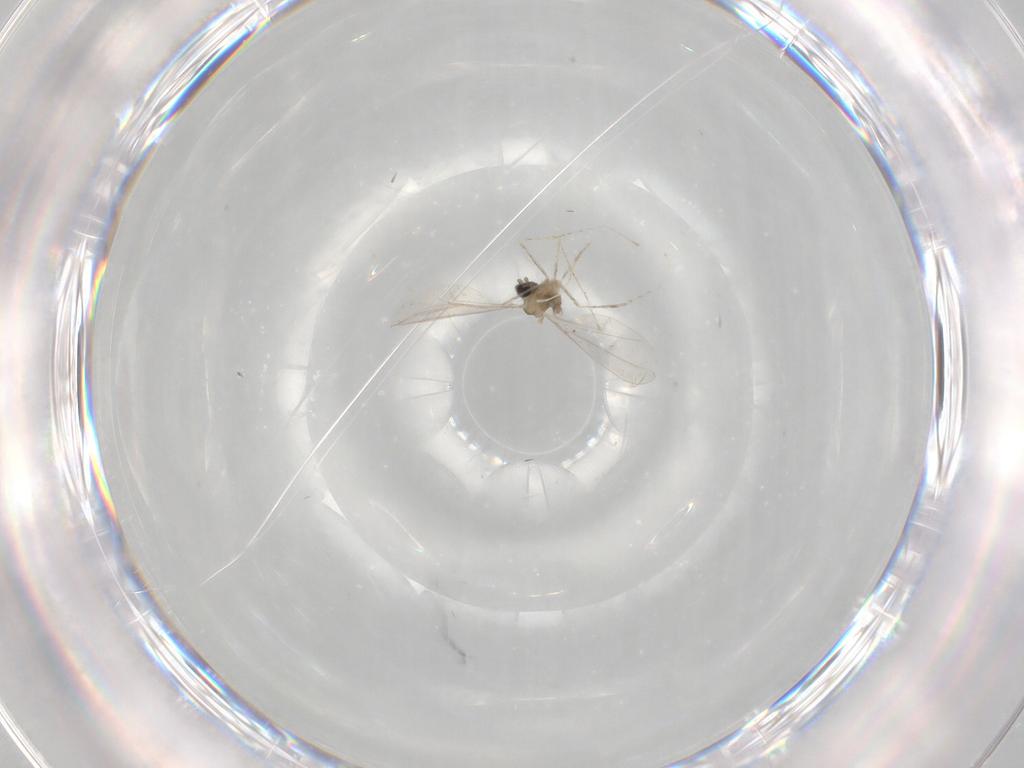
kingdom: Animalia
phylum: Arthropoda
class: Insecta
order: Diptera
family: Cecidomyiidae
